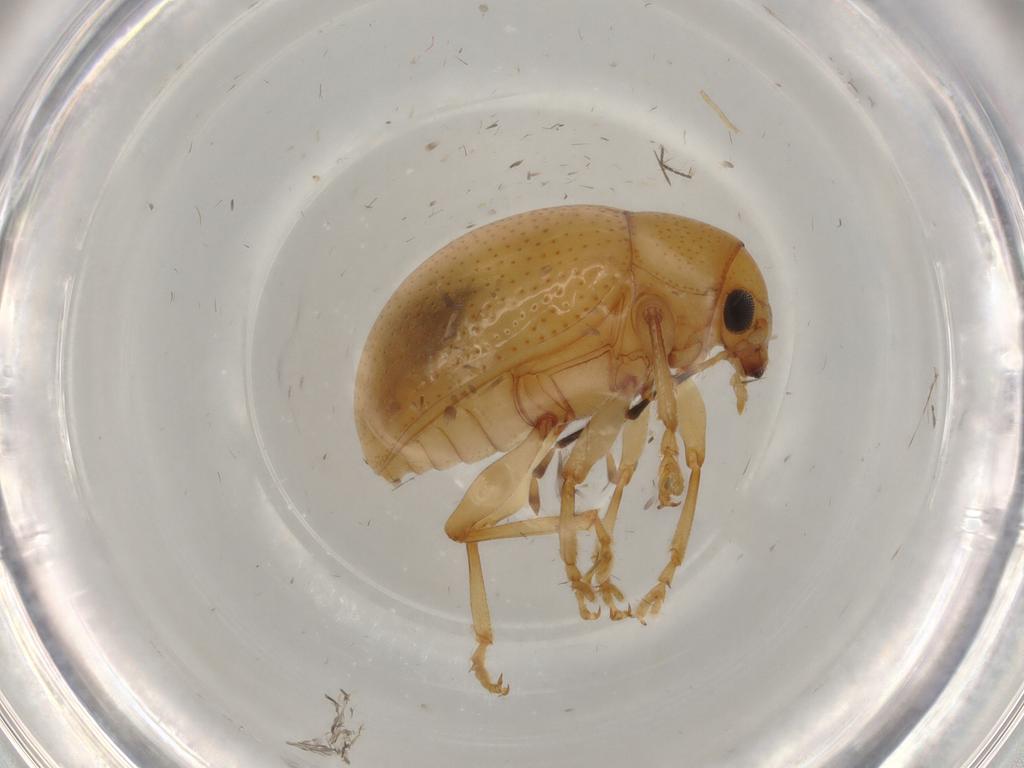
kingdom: Animalia
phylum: Arthropoda
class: Insecta
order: Coleoptera
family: Chrysomelidae
